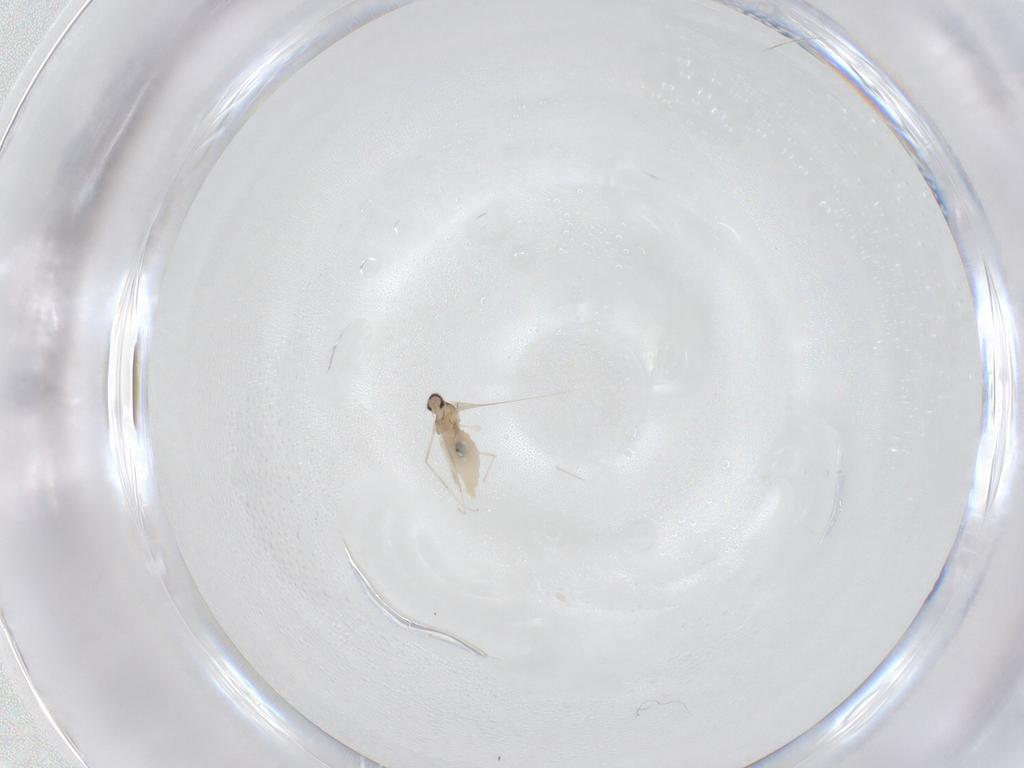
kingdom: Animalia
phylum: Arthropoda
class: Insecta
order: Diptera
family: Cecidomyiidae
